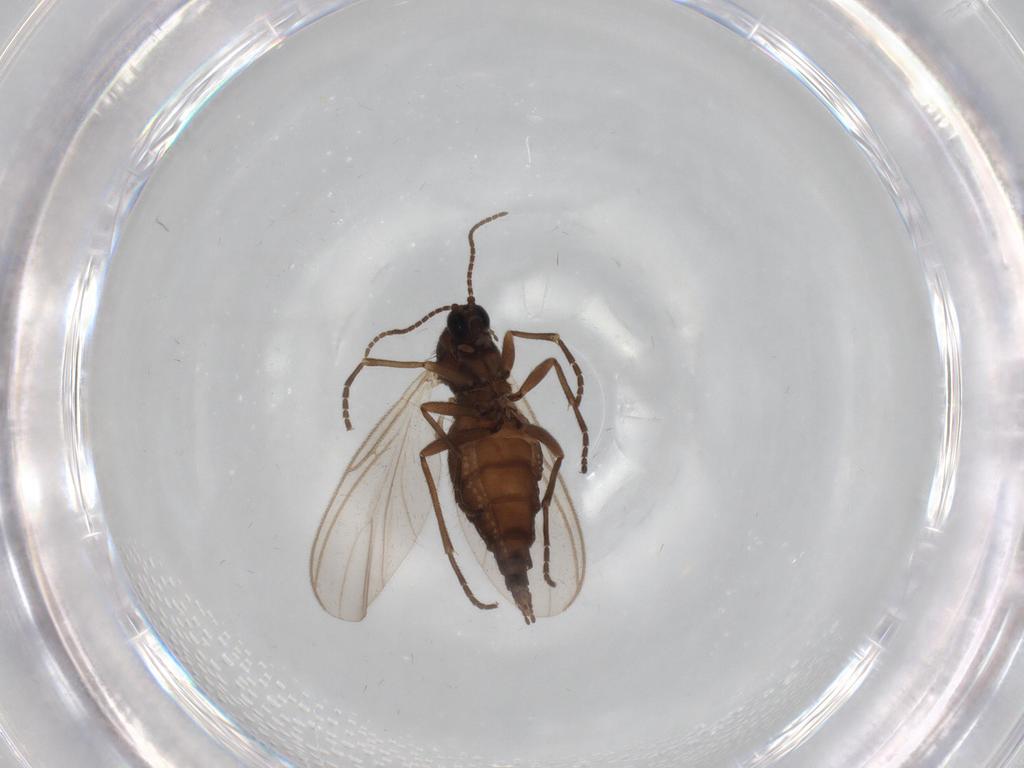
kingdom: Animalia
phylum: Arthropoda
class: Insecta
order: Diptera
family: Sciaridae
